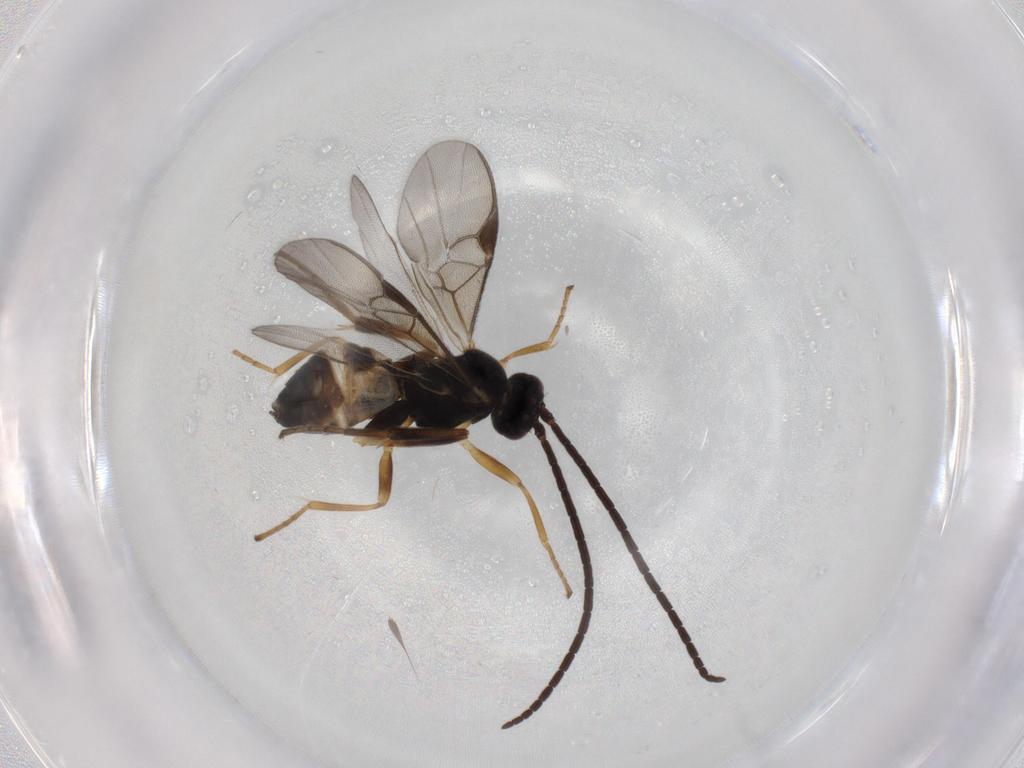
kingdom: Animalia
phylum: Arthropoda
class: Insecta
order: Hymenoptera
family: Braconidae
